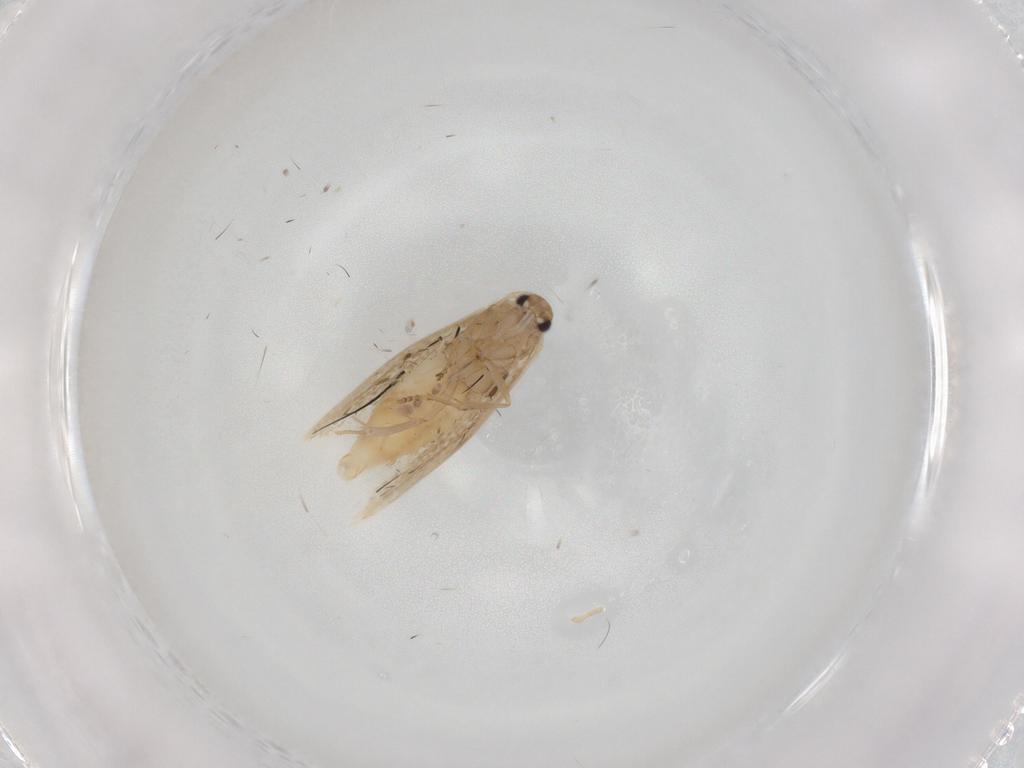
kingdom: Animalia
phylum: Arthropoda
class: Insecta
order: Lepidoptera
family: Bucculatricidae
